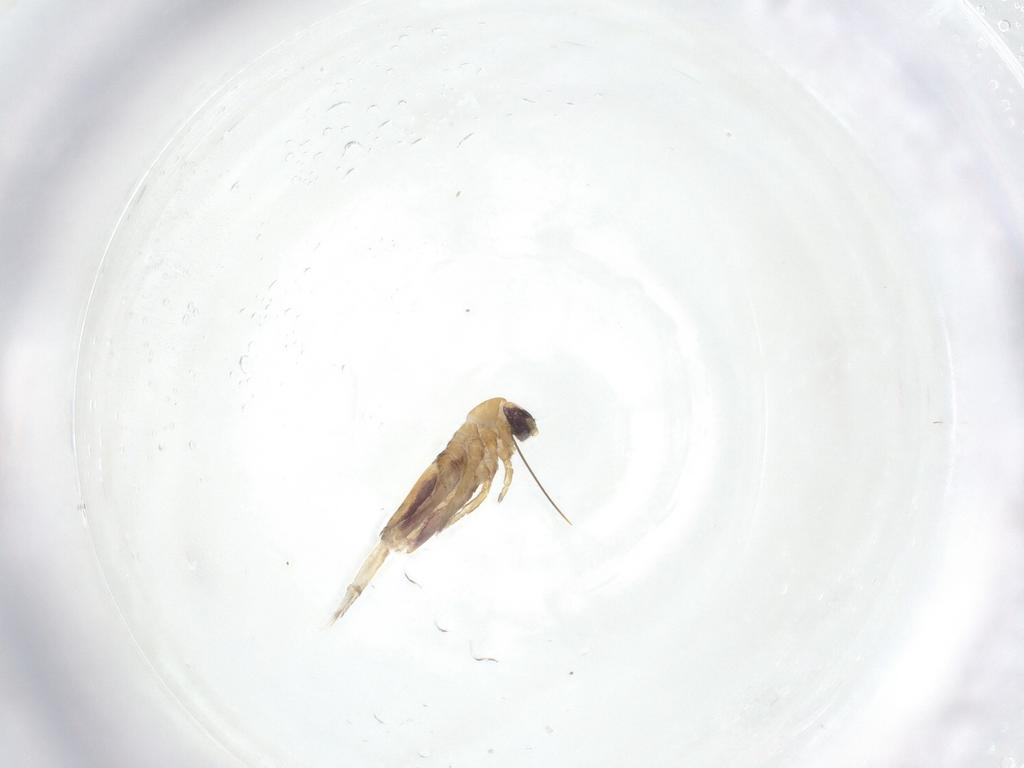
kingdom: Animalia
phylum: Arthropoda
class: Collembola
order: Entomobryomorpha
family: Entomobryidae
